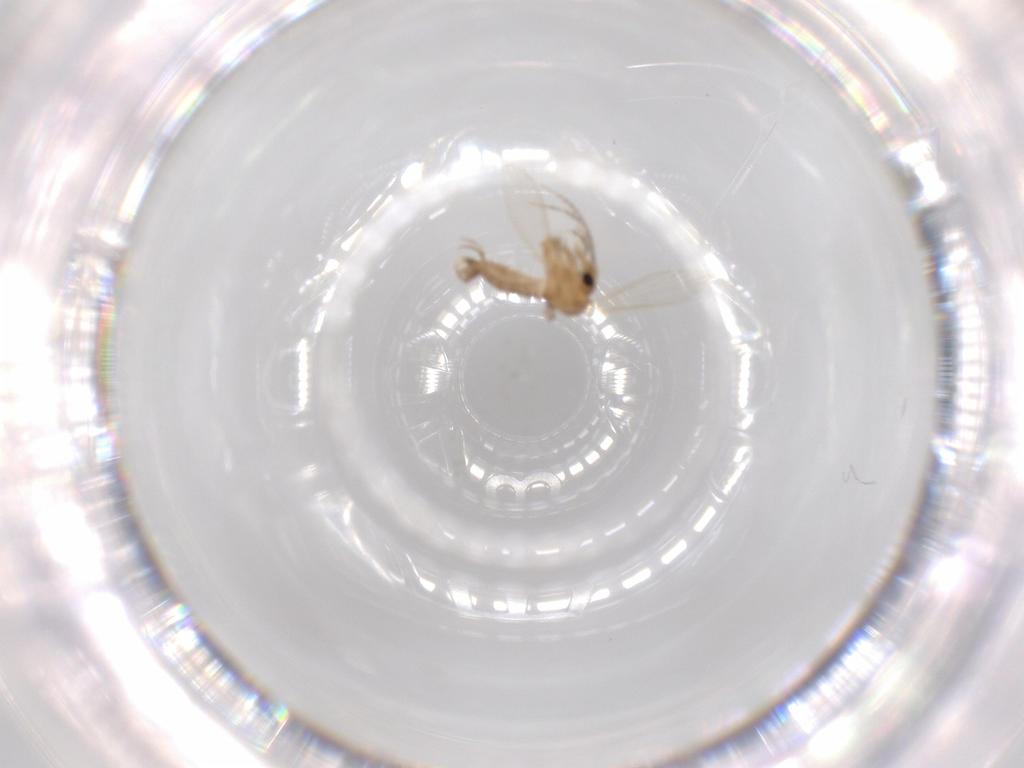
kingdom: Animalia
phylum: Arthropoda
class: Insecta
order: Diptera
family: Psychodidae
